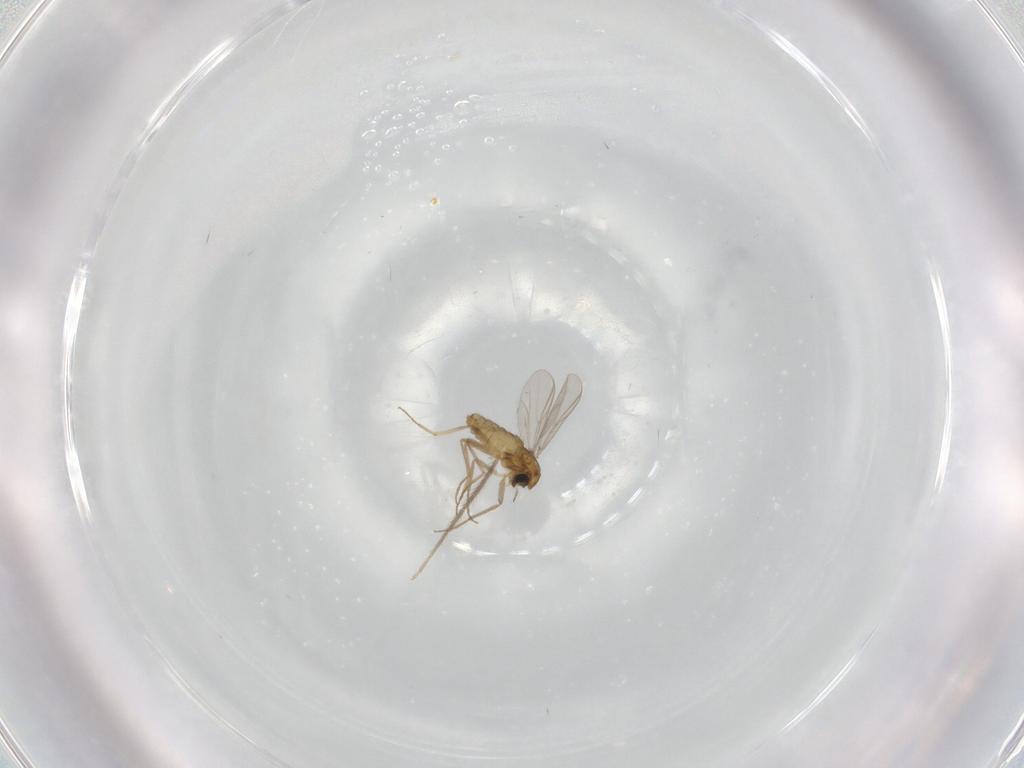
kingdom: Animalia
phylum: Arthropoda
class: Insecta
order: Diptera
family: Chironomidae
